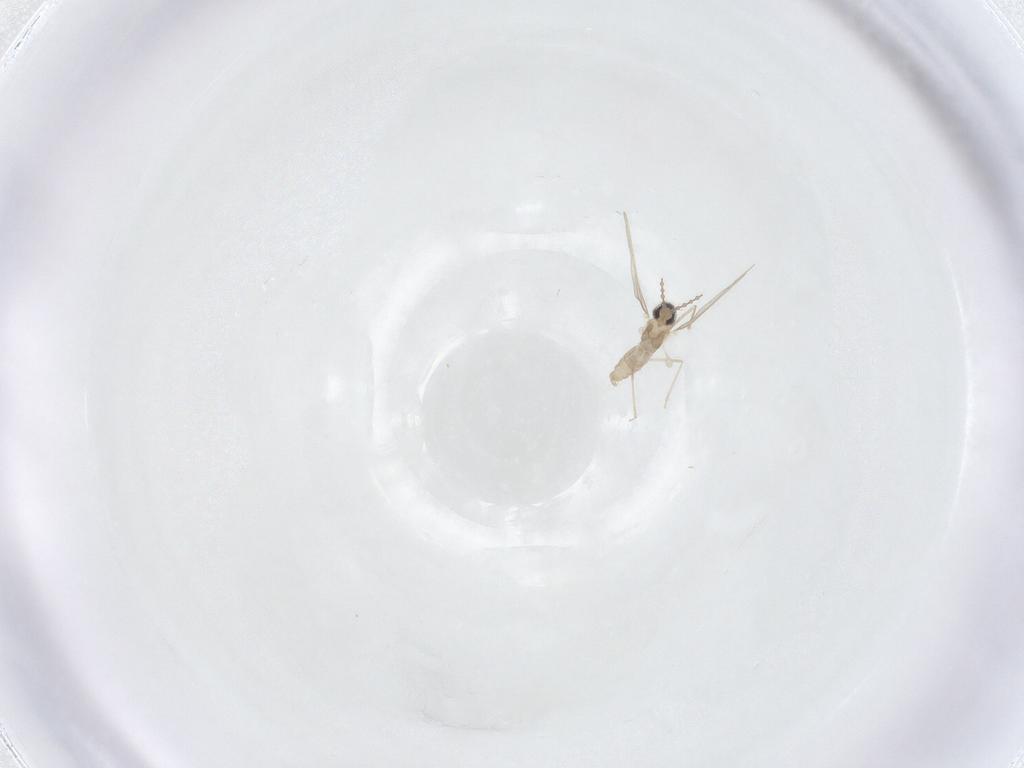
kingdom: Animalia
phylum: Arthropoda
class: Insecta
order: Diptera
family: Cecidomyiidae
